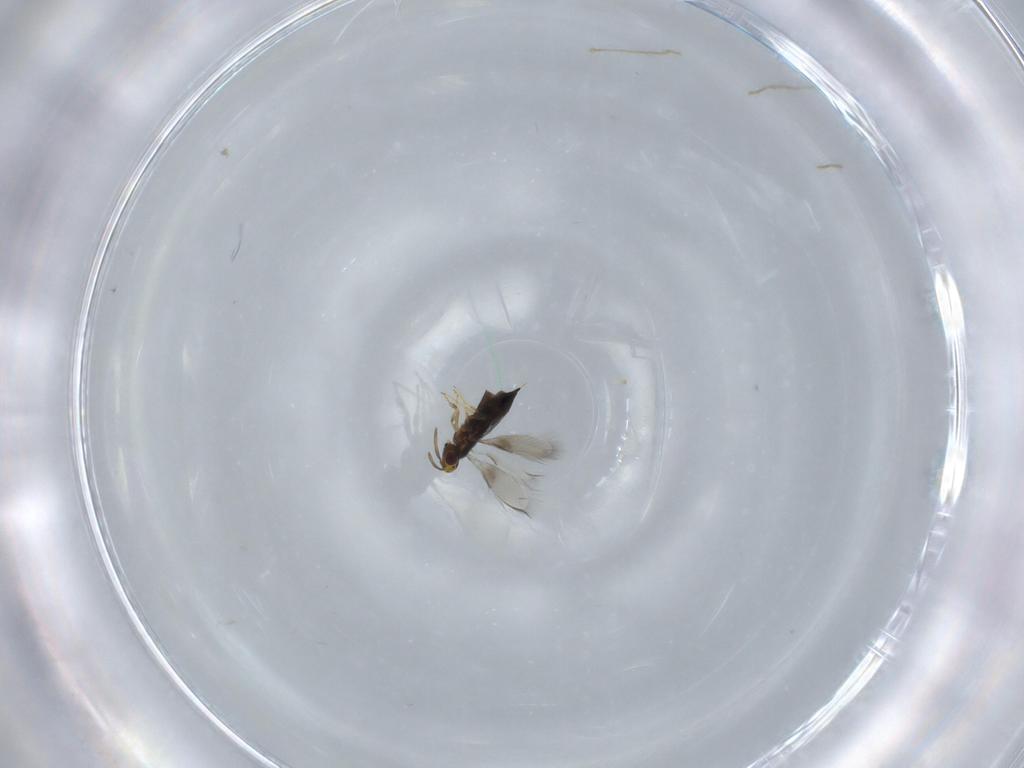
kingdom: Animalia
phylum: Arthropoda
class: Insecta
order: Hymenoptera
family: Signiphoridae
